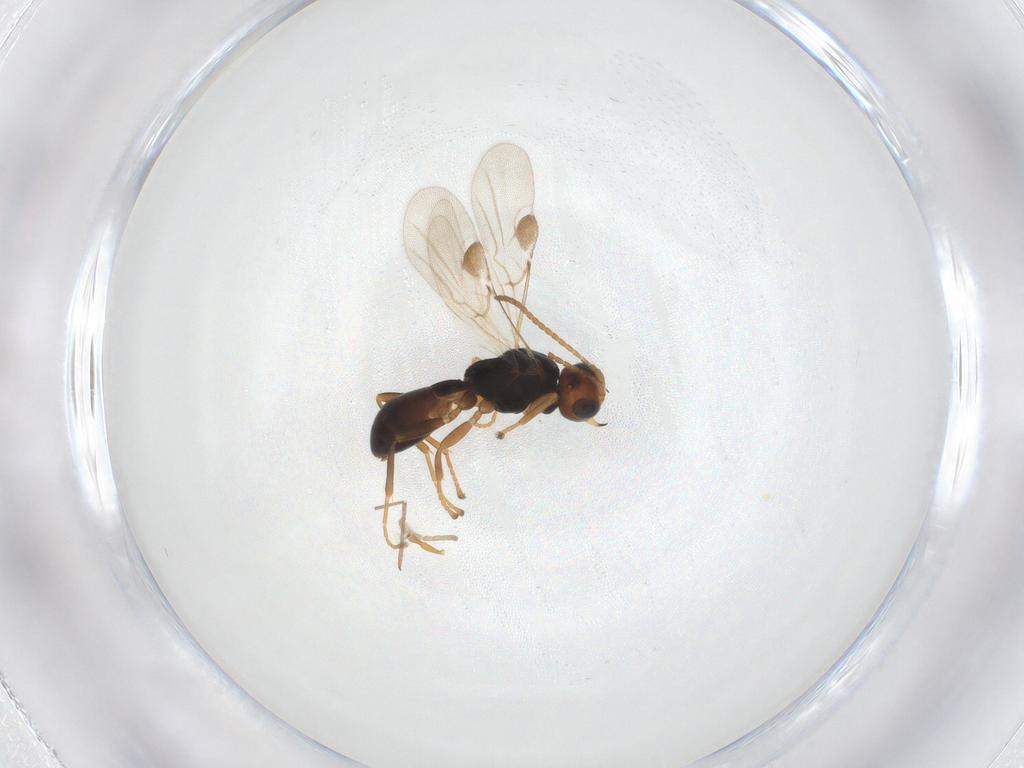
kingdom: Animalia
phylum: Arthropoda
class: Insecta
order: Hymenoptera
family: Braconidae
